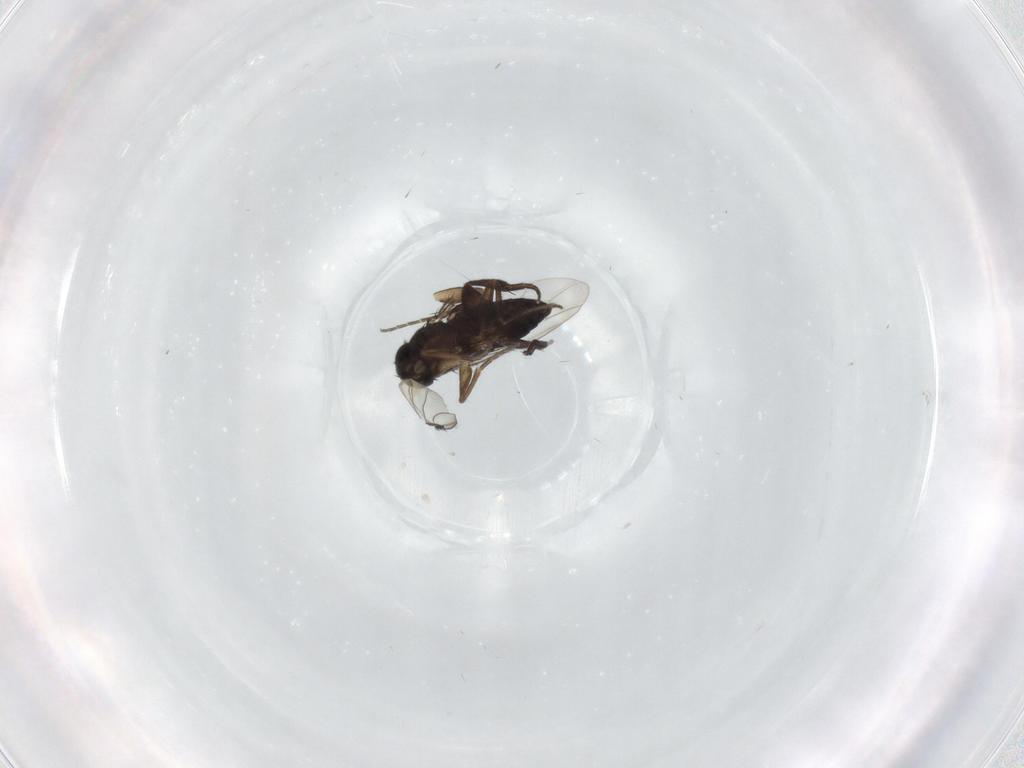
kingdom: Animalia
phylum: Arthropoda
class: Insecta
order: Diptera
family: Phoridae
